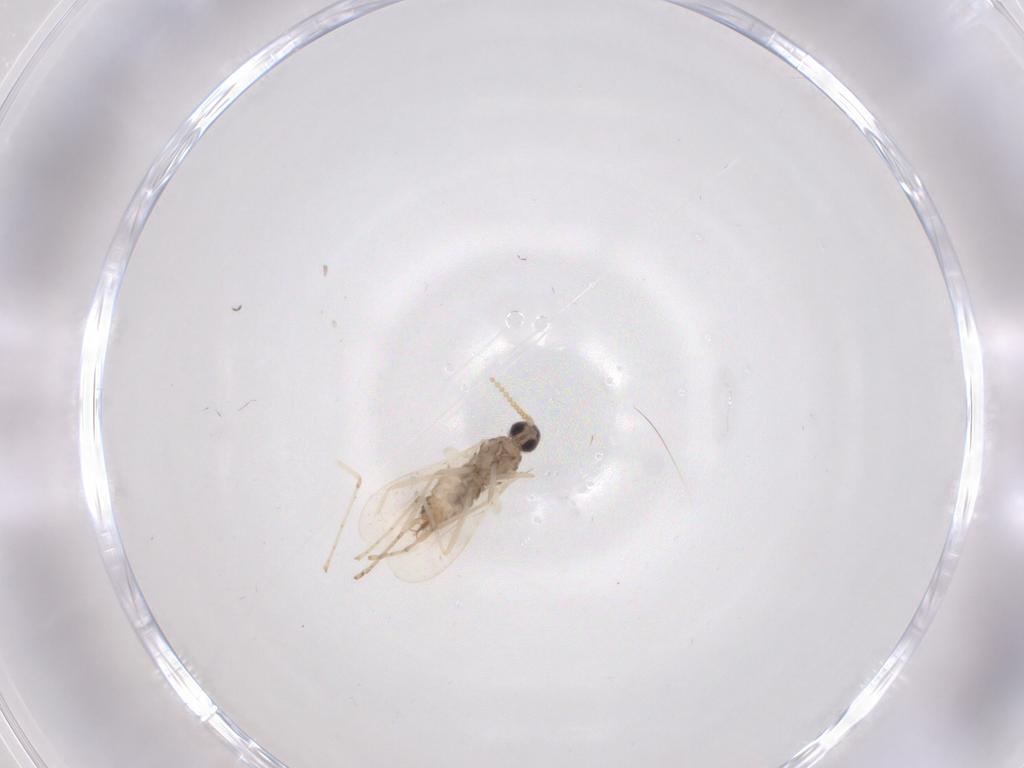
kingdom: Animalia
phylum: Arthropoda
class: Insecta
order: Diptera
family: Cecidomyiidae
